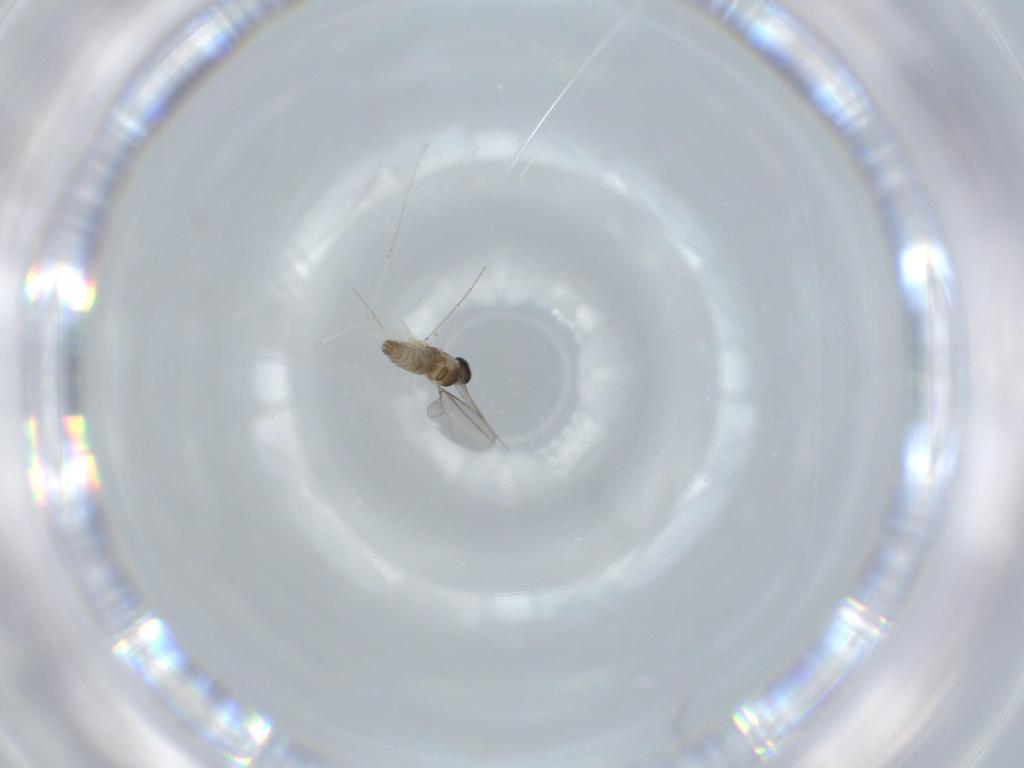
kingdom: Animalia
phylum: Arthropoda
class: Insecta
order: Diptera
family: Cecidomyiidae
